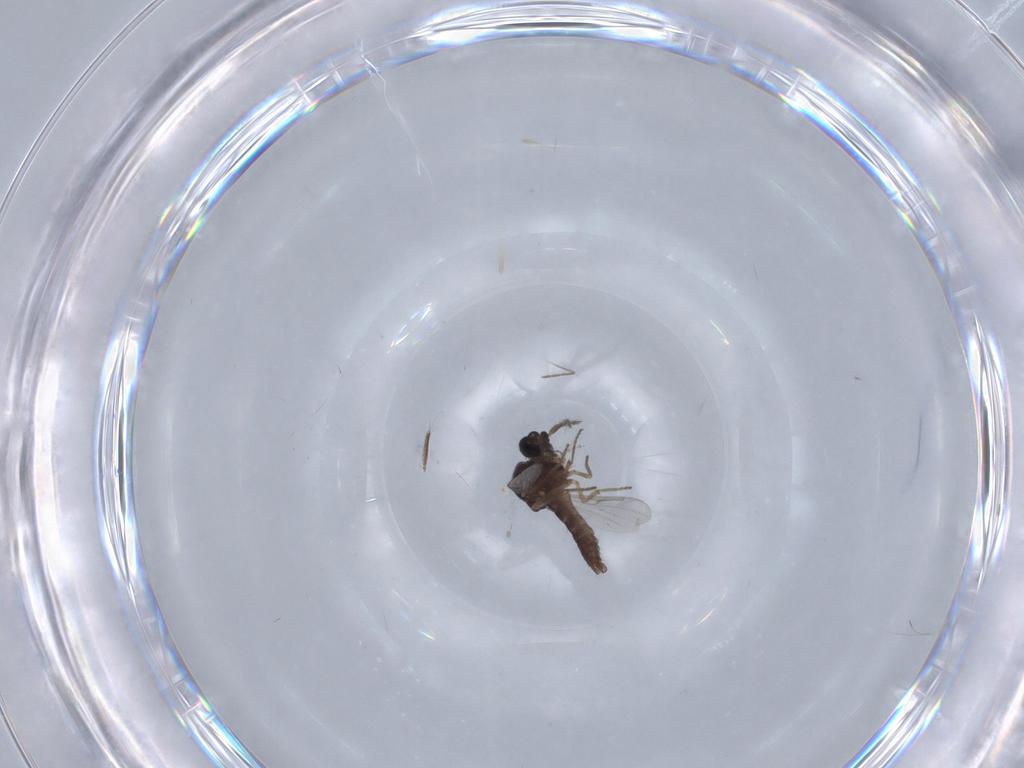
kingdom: Animalia
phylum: Arthropoda
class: Insecta
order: Diptera
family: Ceratopogonidae
